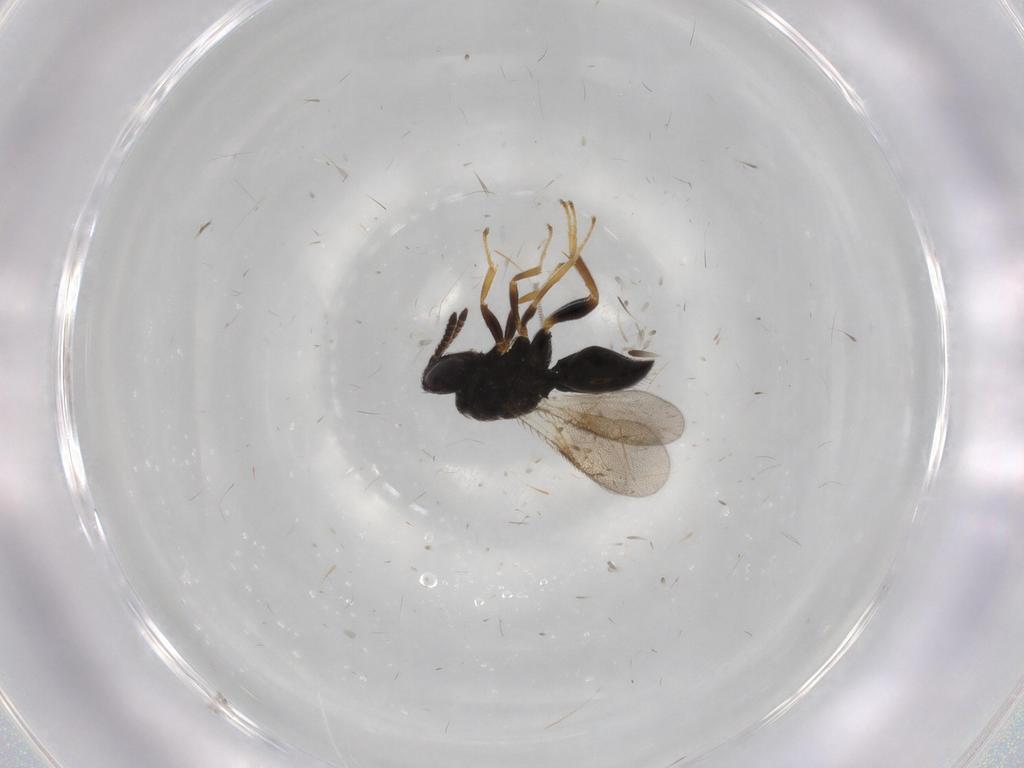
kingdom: Animalia
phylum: Arthropoda
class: Insecta
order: Hymenoptera
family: Pteromalidae
